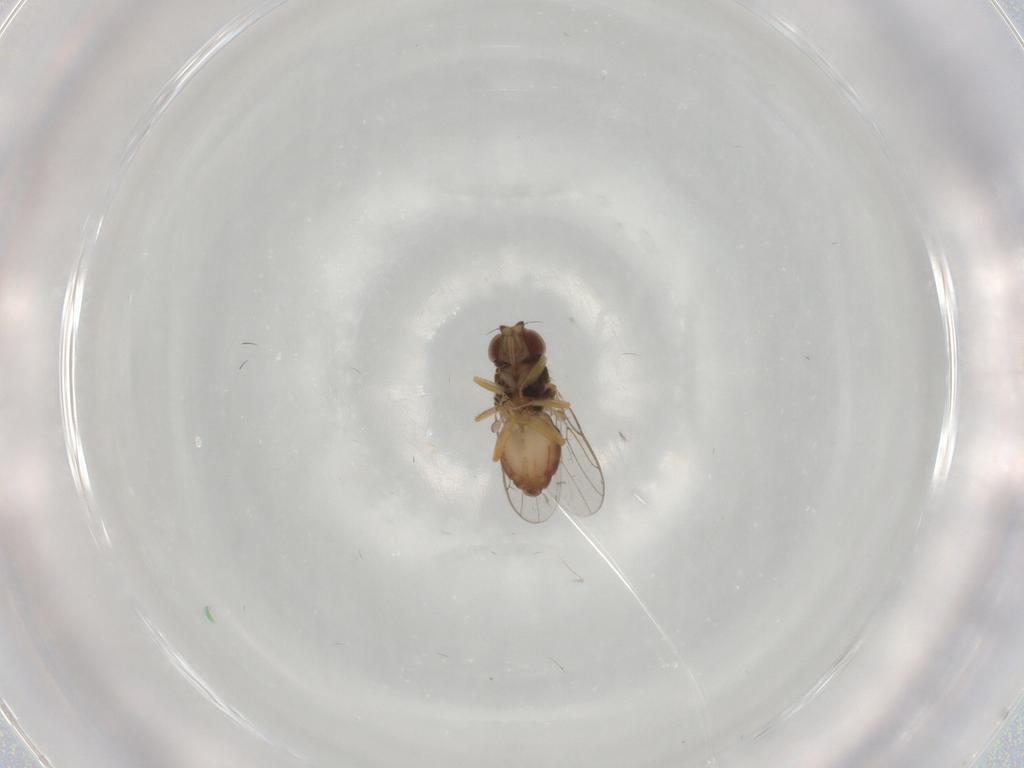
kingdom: Animalia
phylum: Arthropoda
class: Insecta
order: Diptera
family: Chloropidae
